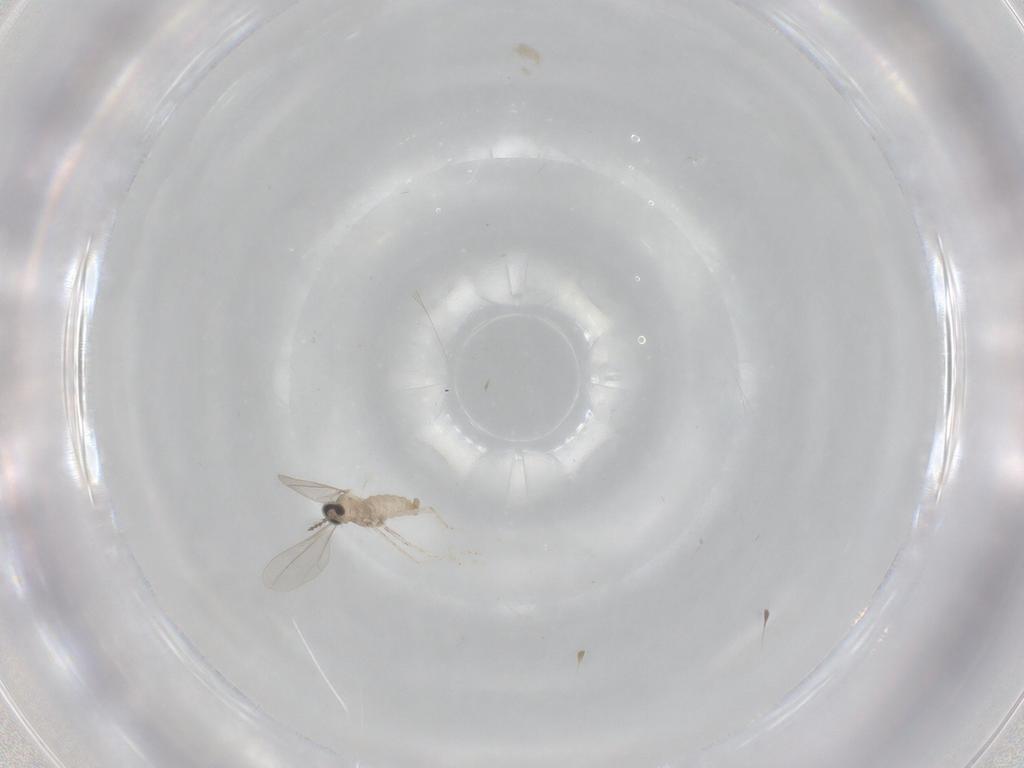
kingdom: Animalia
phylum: Arthropoda
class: Insecta
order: Diptera
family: Cecidomyiidae
